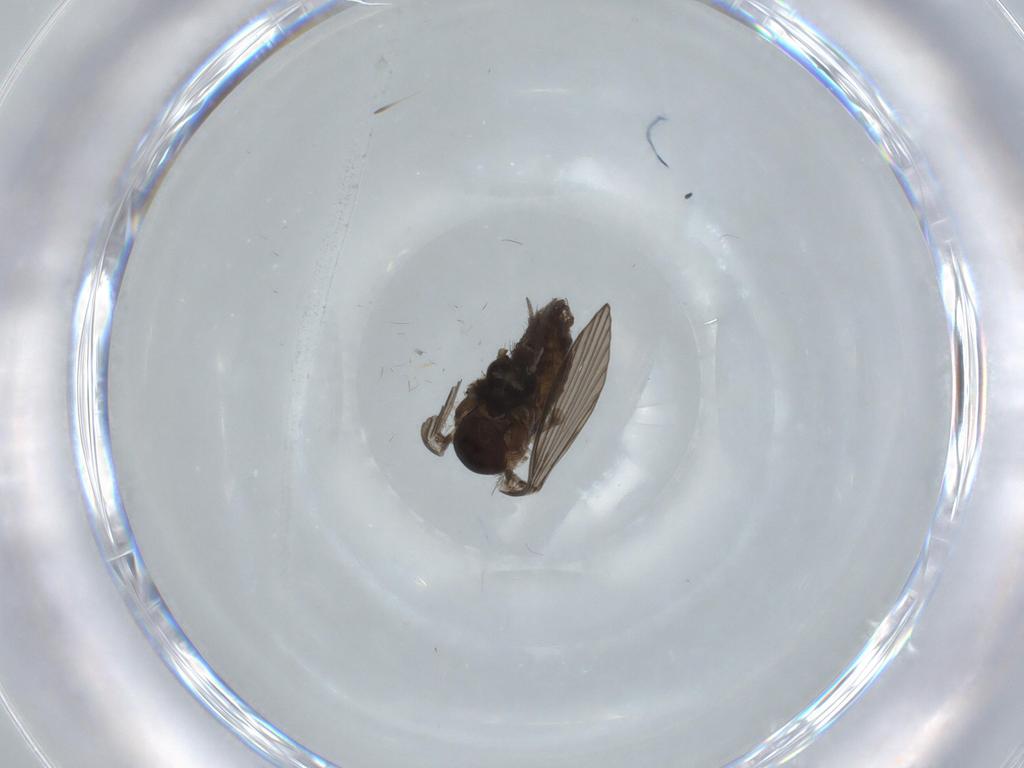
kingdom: Animalia
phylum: Arthropoda
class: Insecta
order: Diptera
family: Psychodidae
